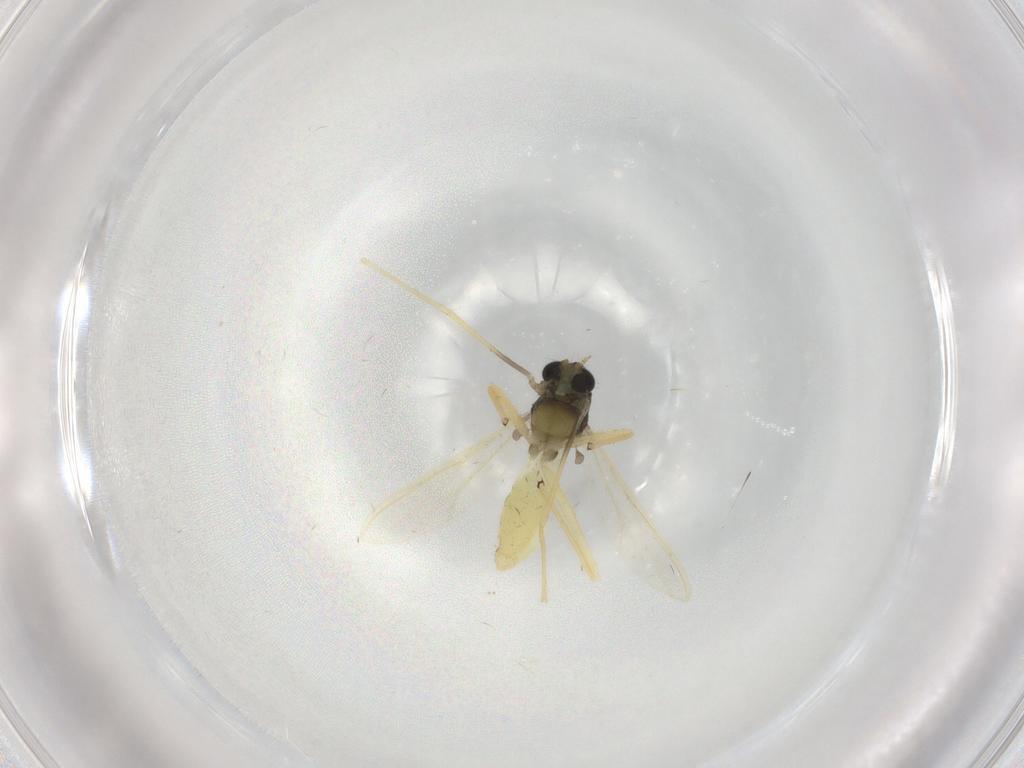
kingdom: Animalia
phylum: Arthropoda
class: Insecta
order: Diptera
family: Chironomidae
